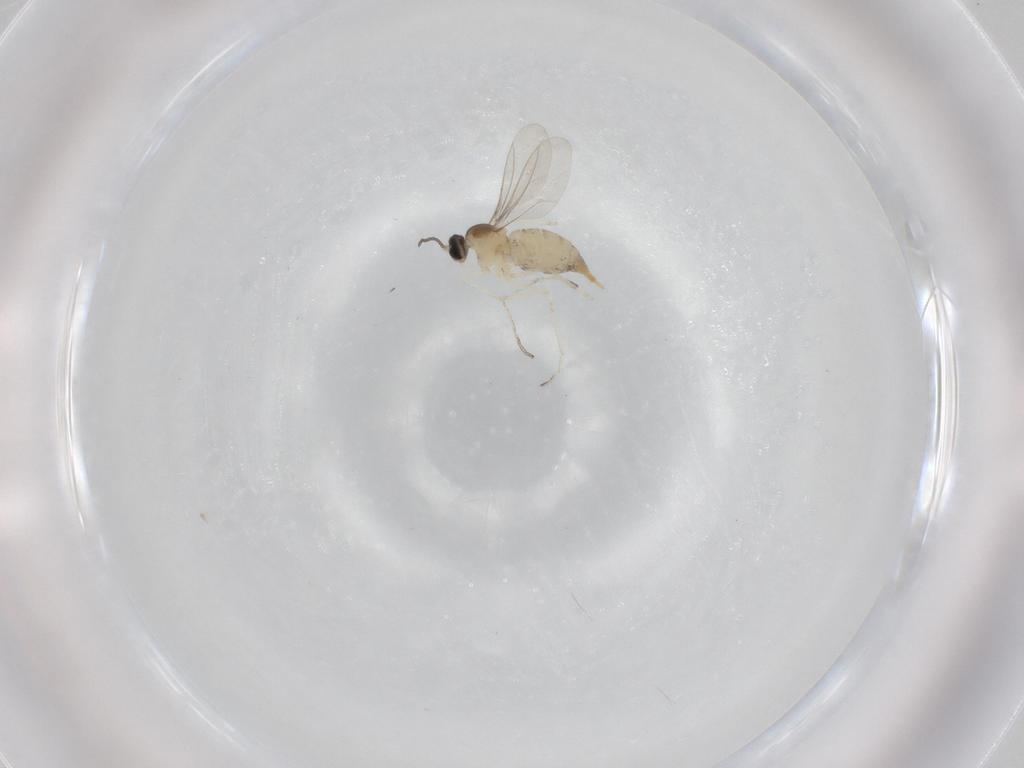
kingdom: Animalia
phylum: Arthropoda
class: Insecta
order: Diptera
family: Cecidomyiidae
